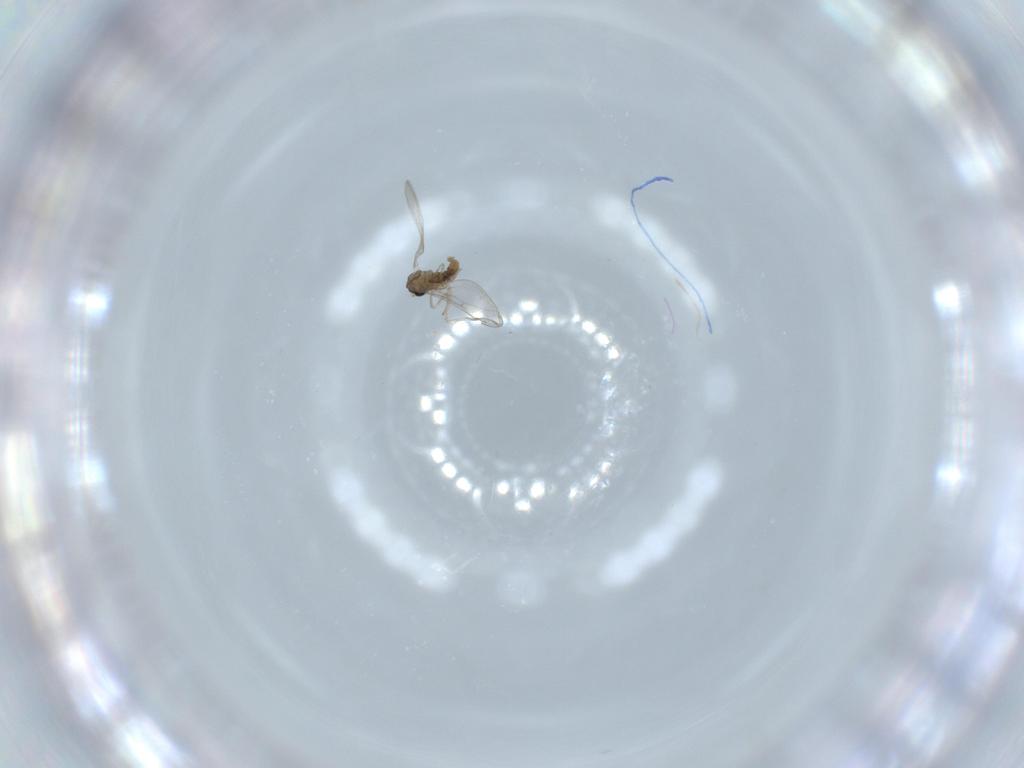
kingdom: Animalia
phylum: Arthropoda
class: Insecta
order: Diptera
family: Cecidomyiidae
